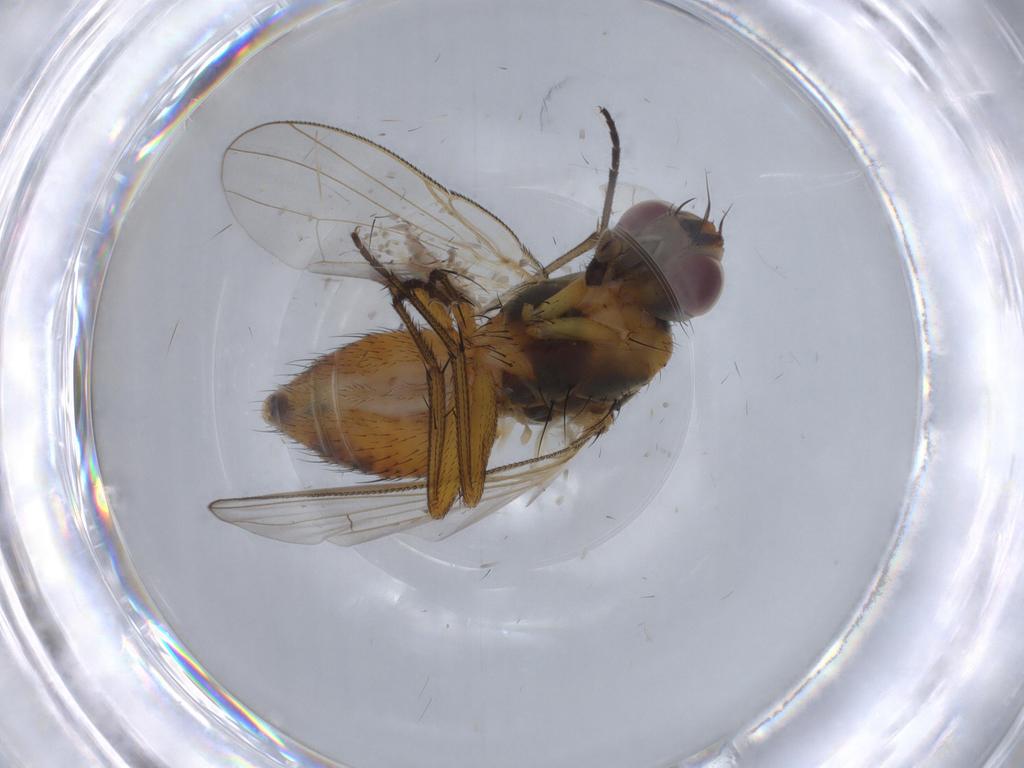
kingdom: Animalia
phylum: Arthropoda
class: Insecta
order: Diptera
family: Muscidae
